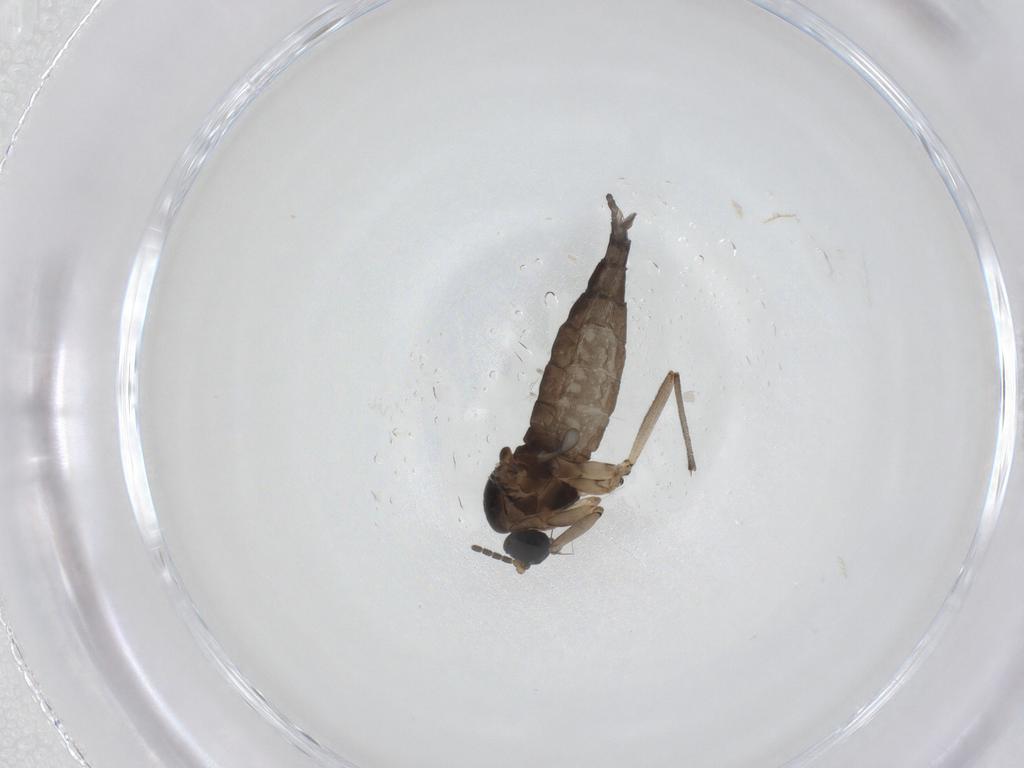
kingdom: Animalia
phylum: Arthropoda
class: Insecta
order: Diptera
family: Sciaridae
